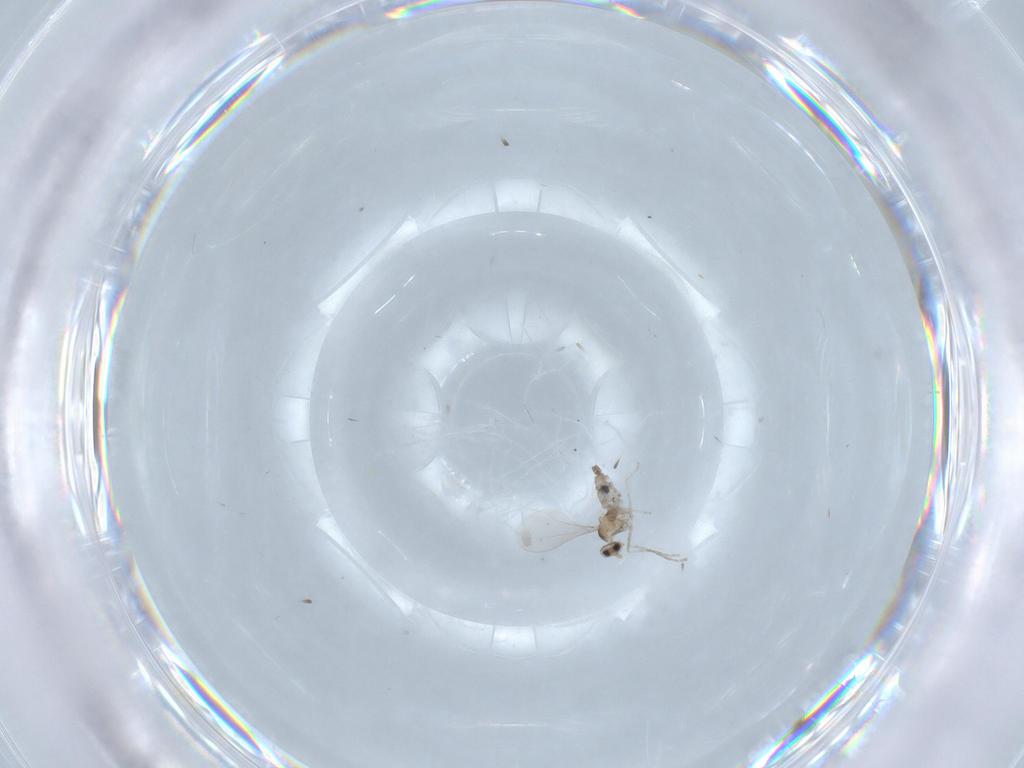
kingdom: Animalia
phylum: Arthropoda
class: Insecta
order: Diptera
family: Cecidomyiidae
